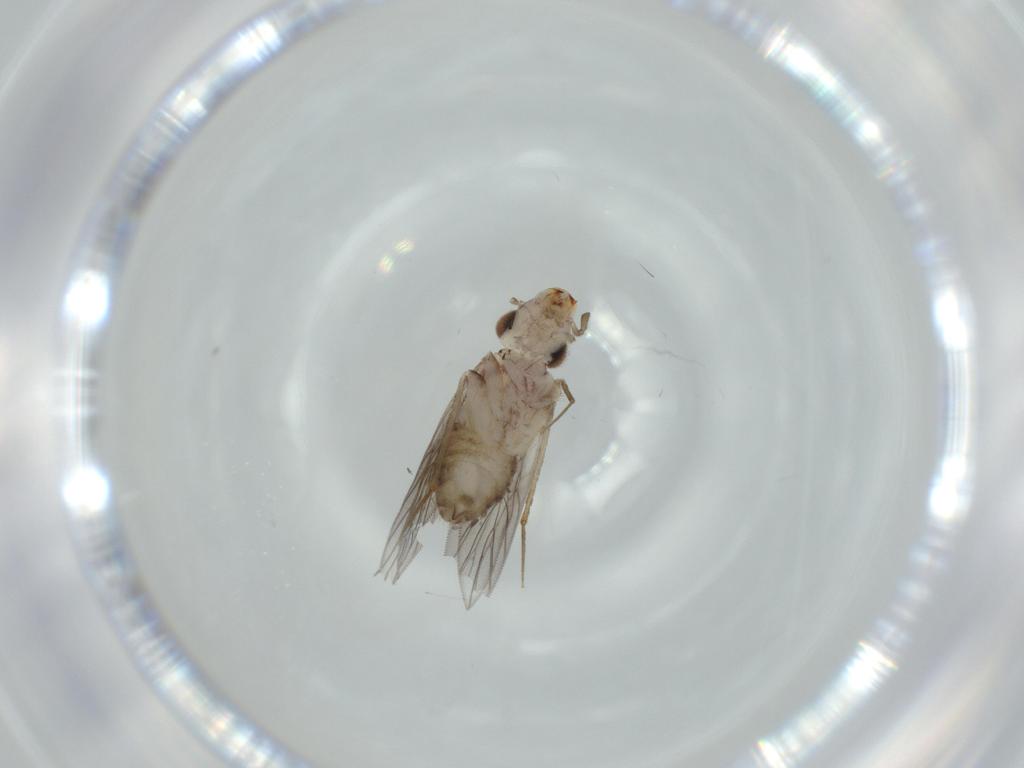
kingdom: Animalia
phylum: Arthropoda
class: Insecta
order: Psocodea
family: Lepidopsocidae
